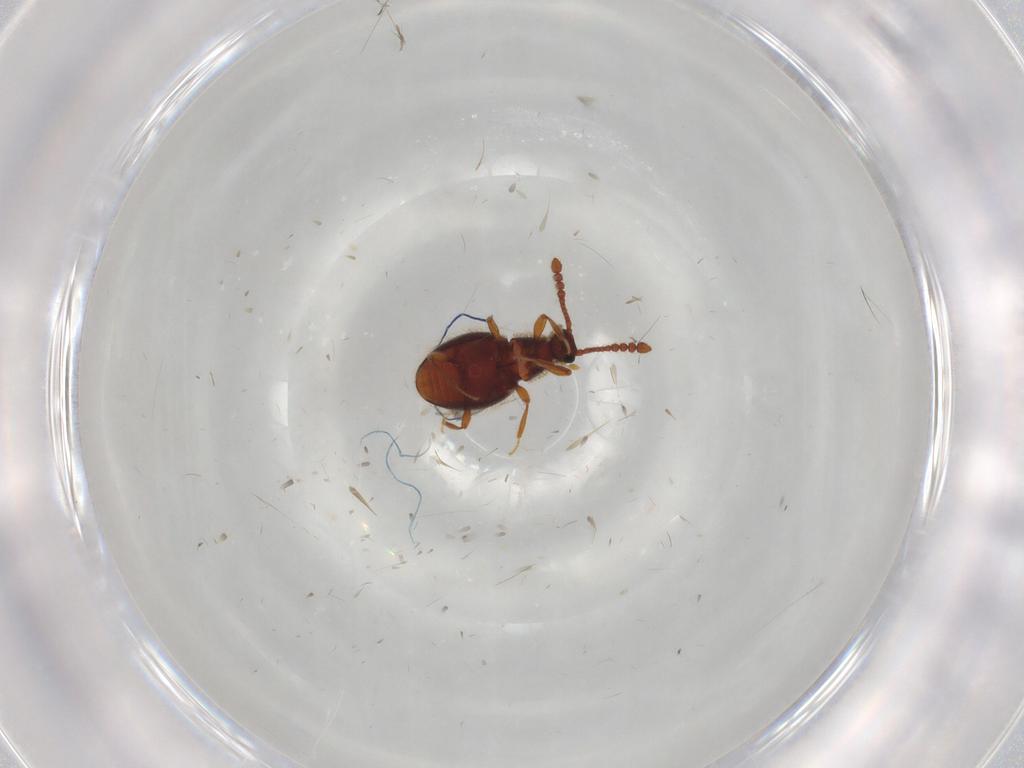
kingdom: Animalia
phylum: Arthropoda
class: Insecta
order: Coleoptera
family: Staphylinidae
